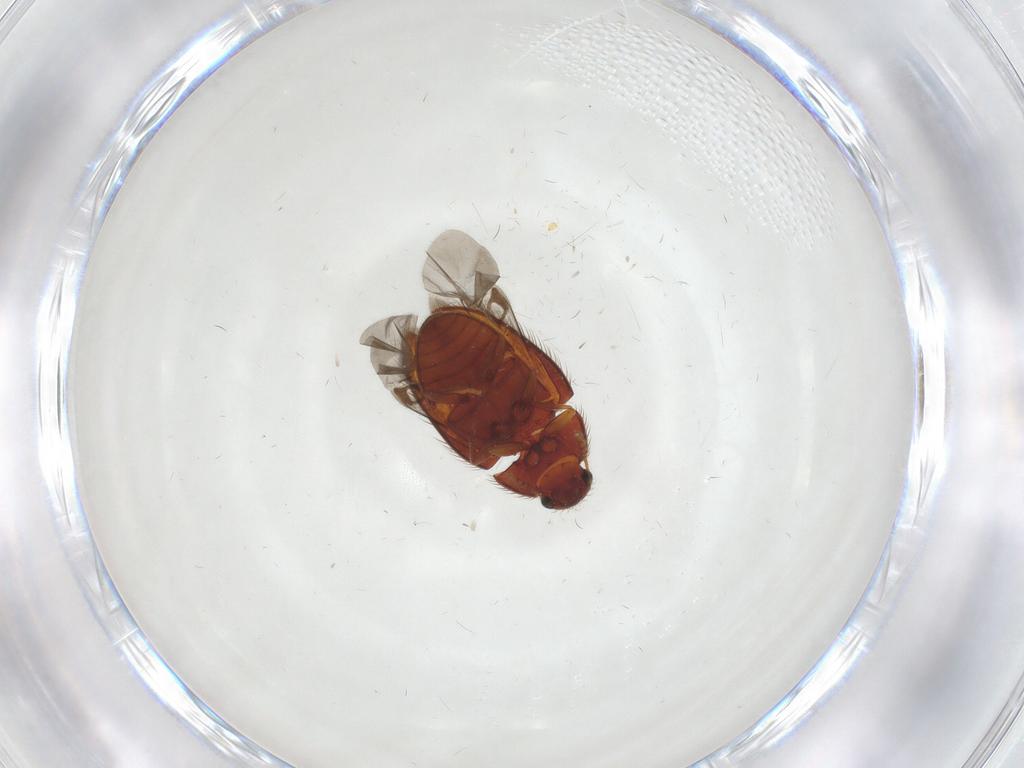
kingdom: Animalia
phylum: Arthropoda
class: Insecta
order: Coleoptera
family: Biphyllidae
